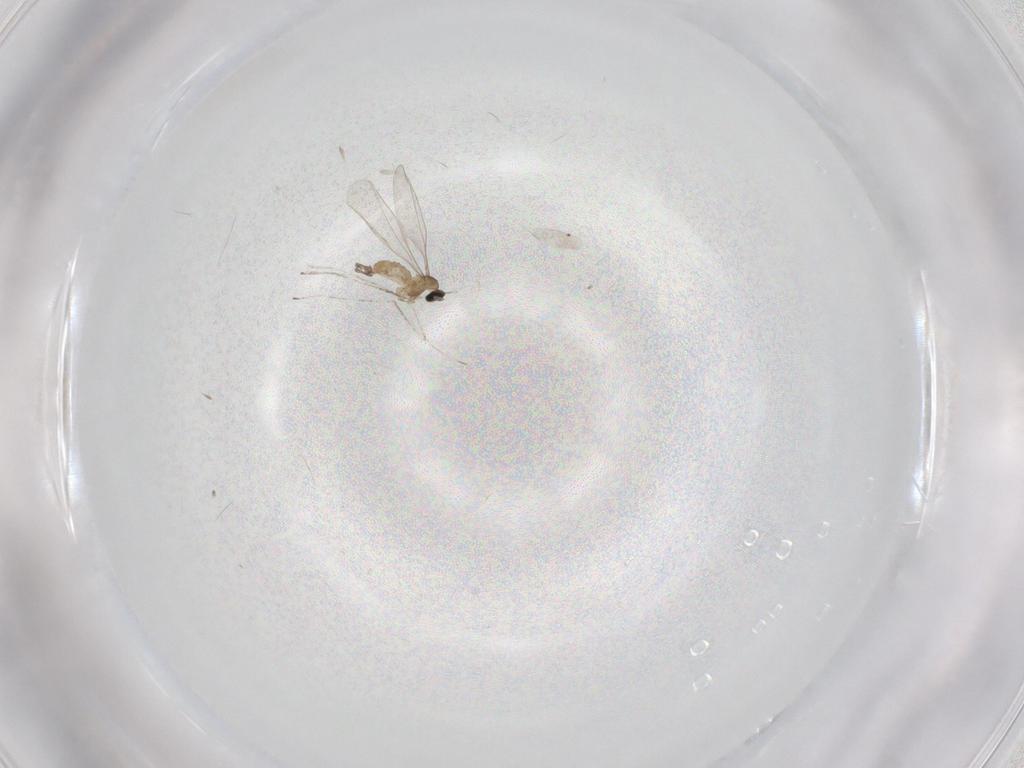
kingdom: Animalia
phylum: Arthropoda
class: Insecta
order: Diptera
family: Cecidomyiidae
